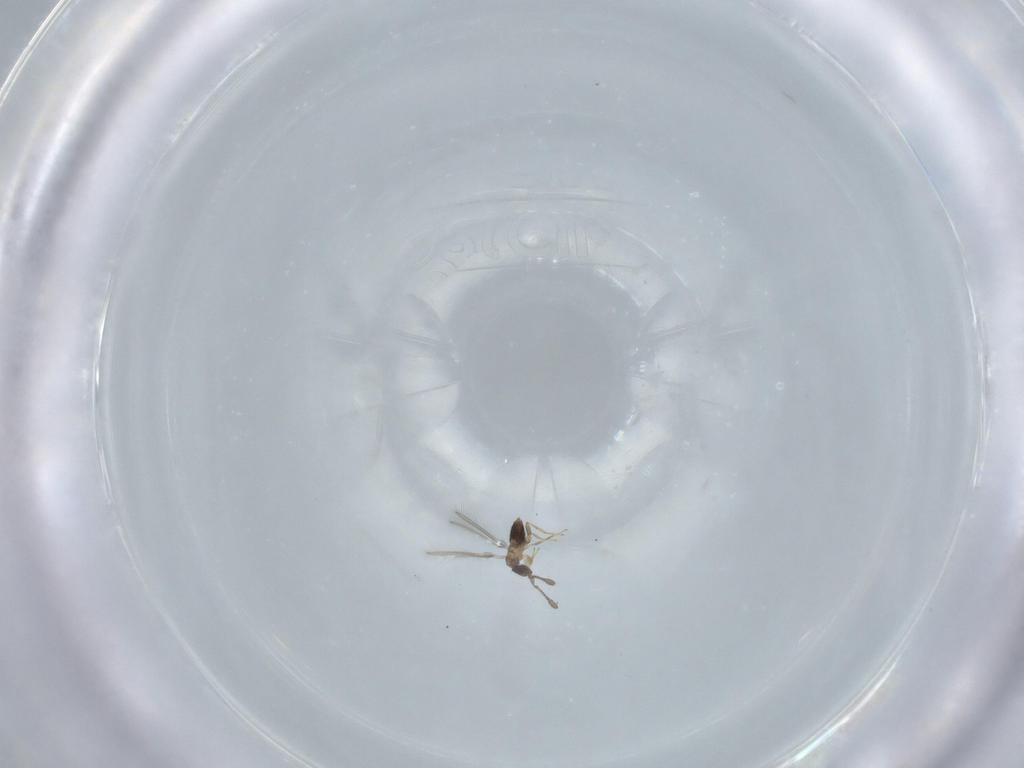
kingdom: Animalia
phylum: Arthropoda
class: Insecta
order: Hymenoptera
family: Mymaridae
